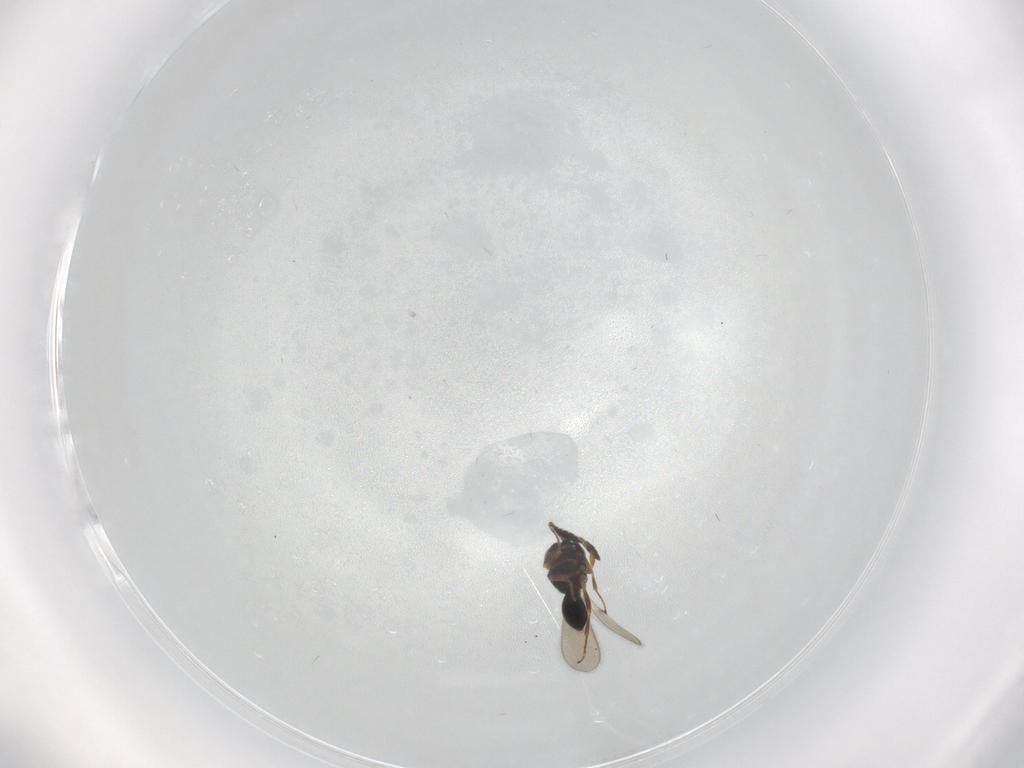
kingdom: Animalia
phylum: Arthropoda
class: Insecta
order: Hymenoptera
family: Scelionidae
